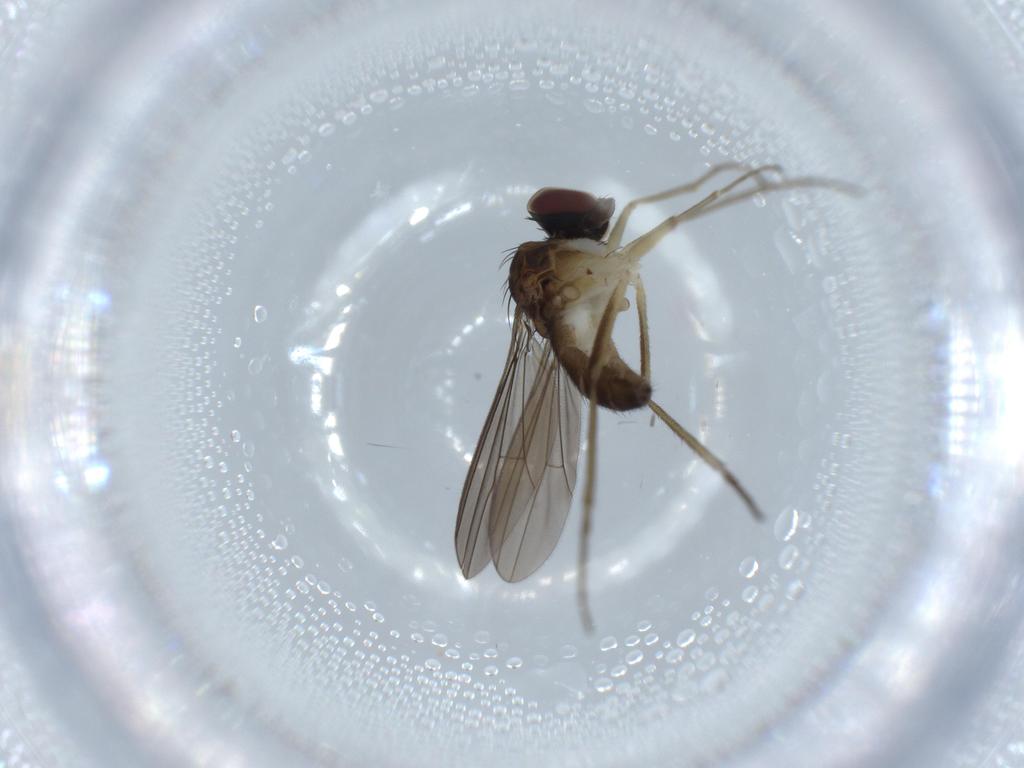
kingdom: Animalia
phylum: Arthropoda
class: Insecta
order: Diptera
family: Dolichopodidae
